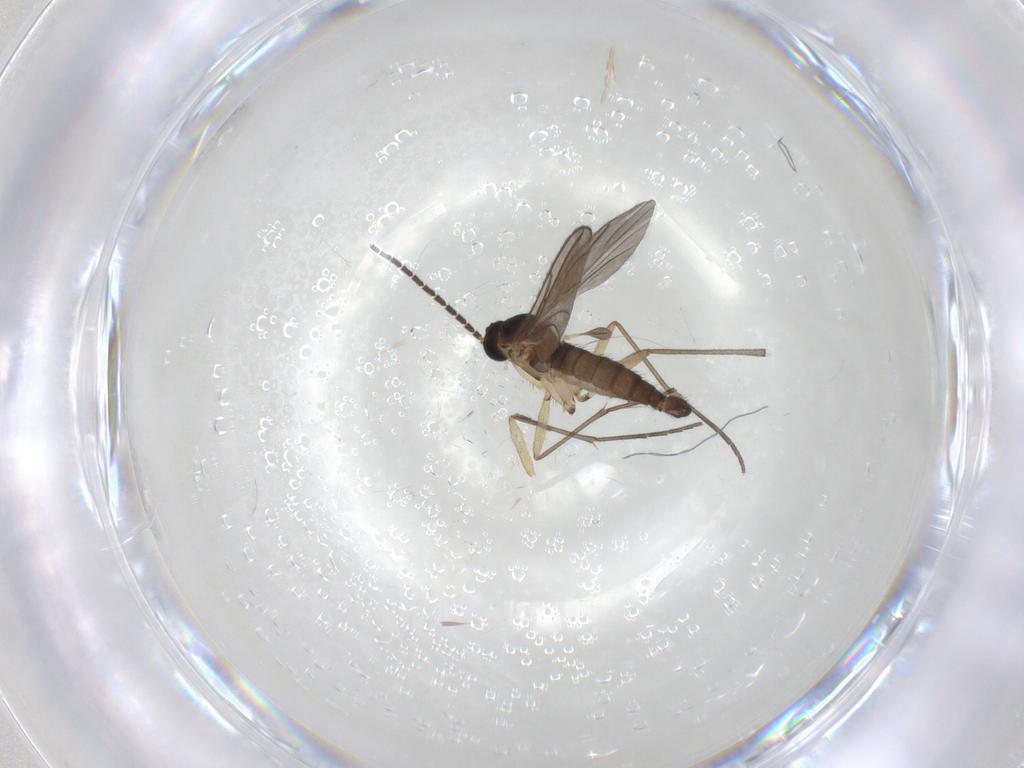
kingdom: Animalia
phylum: Arthropoda
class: Insecta
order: Diptera
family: Sciaridae
